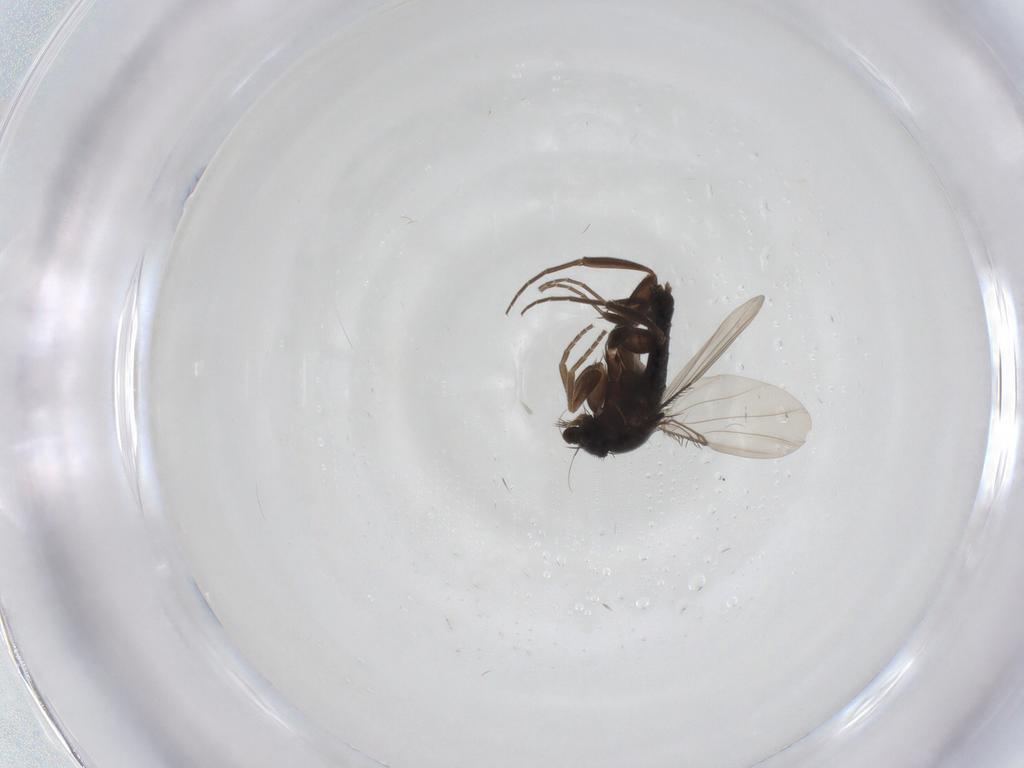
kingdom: Animalia
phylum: Arthropoda
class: Insecta
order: Diptera
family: Phoridae
